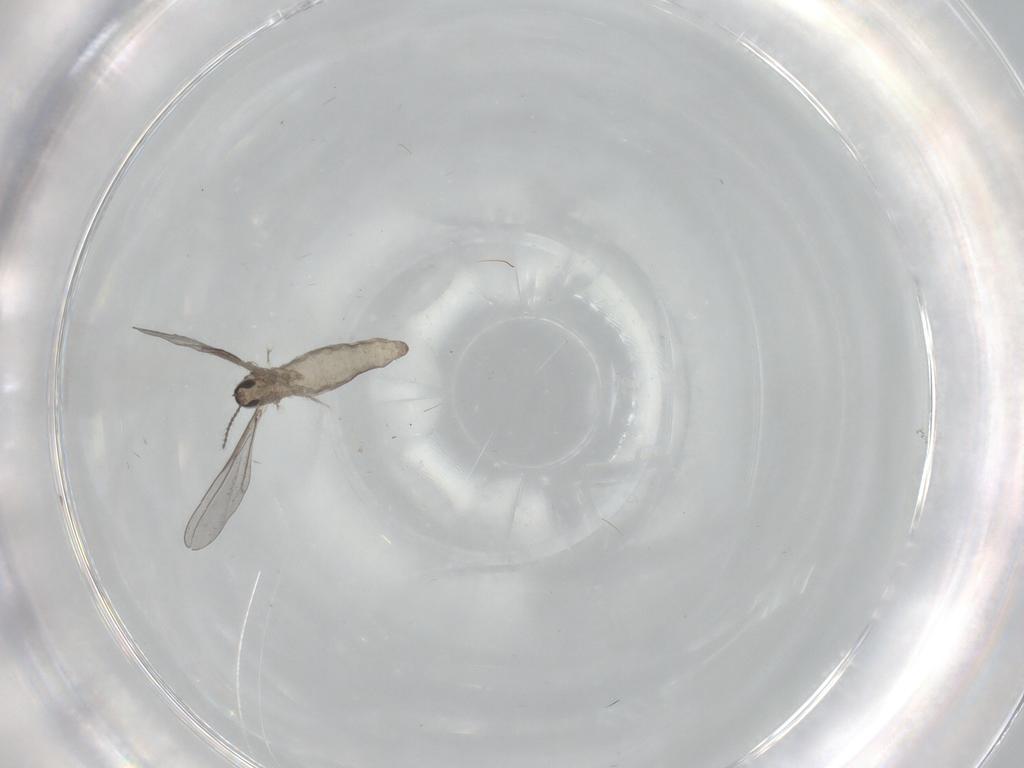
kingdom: Animalia
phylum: Arthropoda
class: Insecta
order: Diptera
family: Cecidomyiidae
